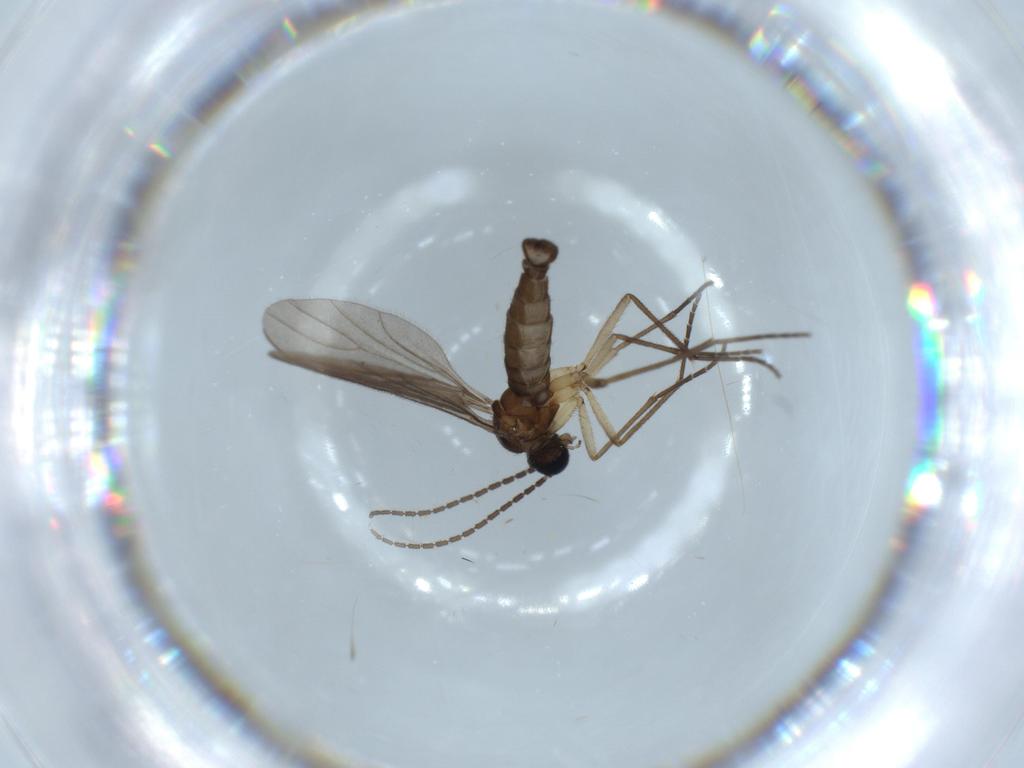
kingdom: Animalia
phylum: Arthropoda
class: Insecta
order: Diptera
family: Sciaridae
